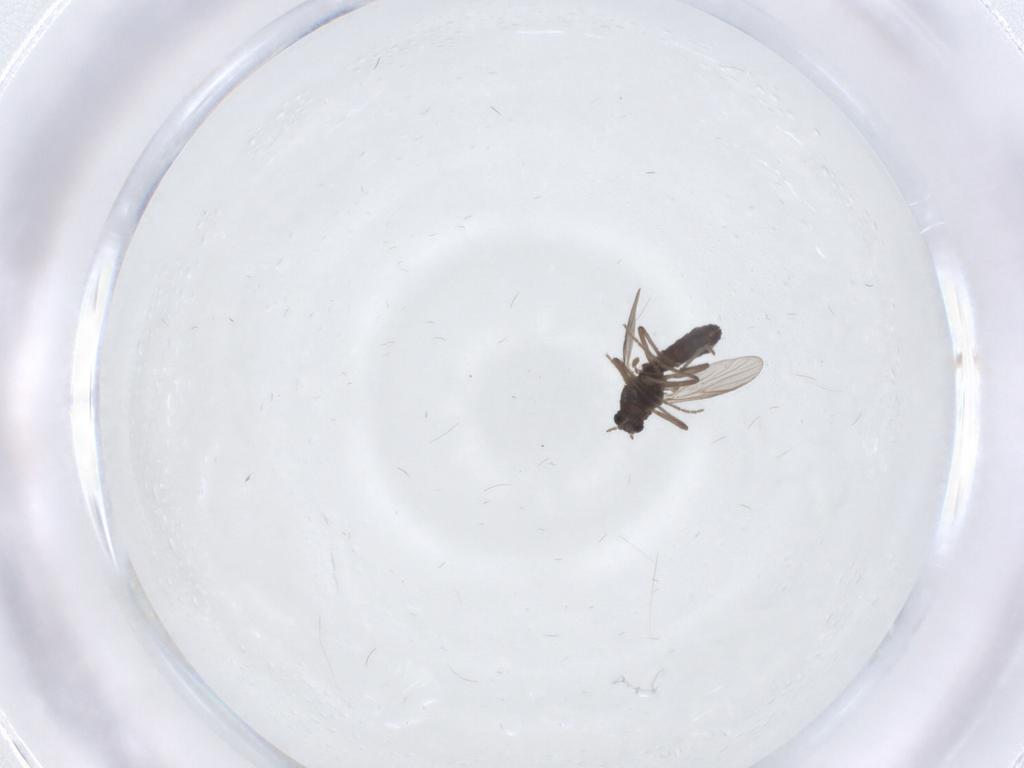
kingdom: Animalia
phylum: Arthropoda
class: Insecta
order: Diptera
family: Chironomidae
